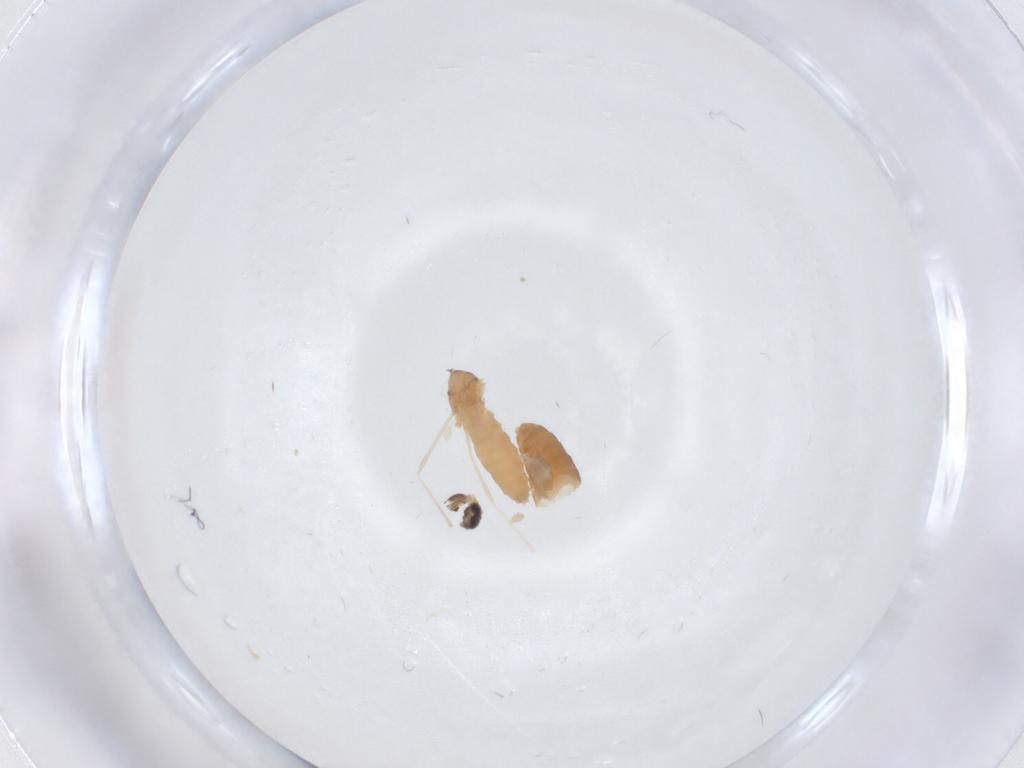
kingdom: Animalia
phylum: Arthropoda
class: Insecta
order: Diptera
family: Chironomidae
